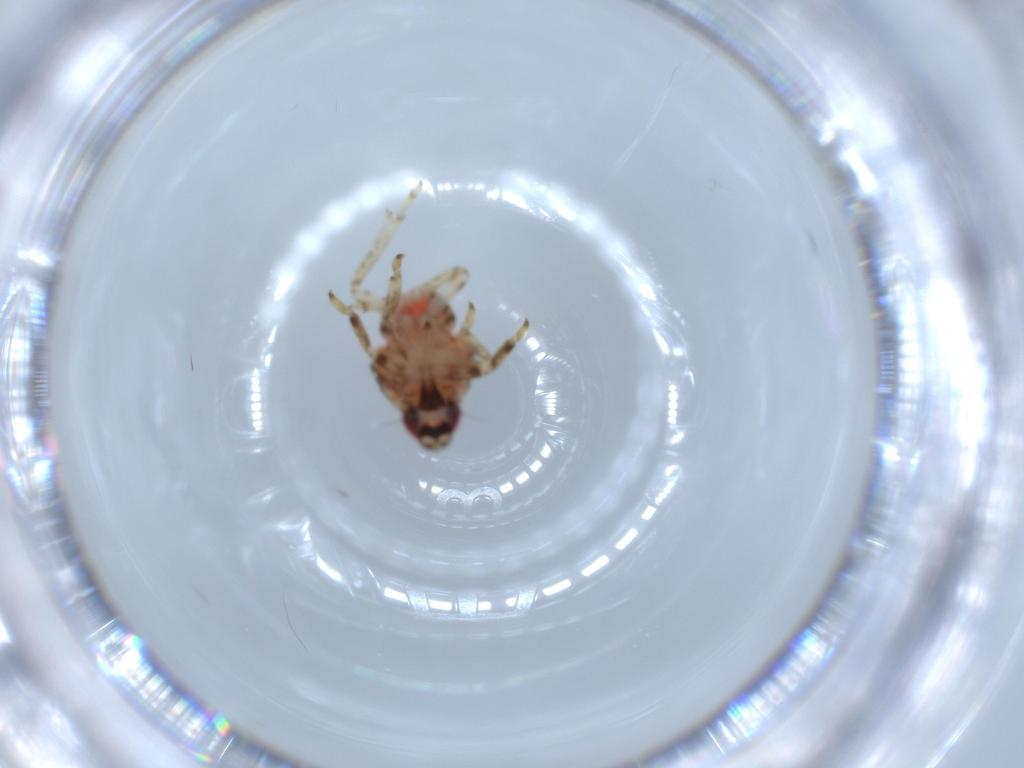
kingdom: Animalia
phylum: Arthropoda
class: Insecta
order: Hemiptera
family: Issidae
